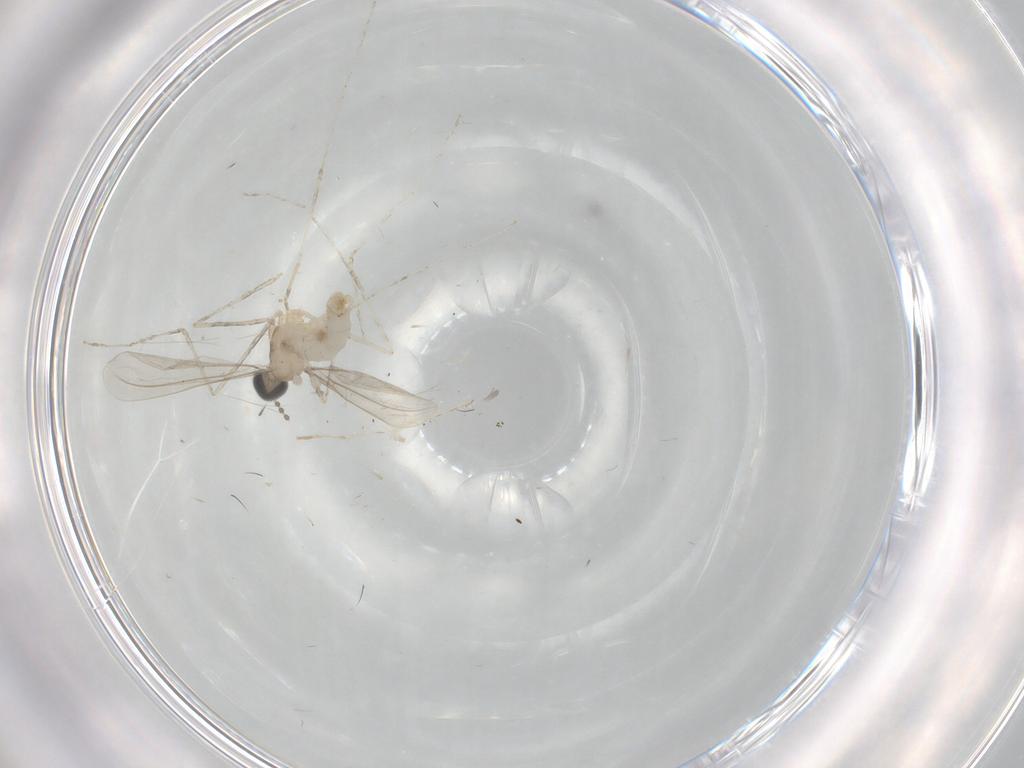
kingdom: Animalia
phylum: Arthropoda
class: Insecta
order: Diptera
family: Cecidomyiidae
